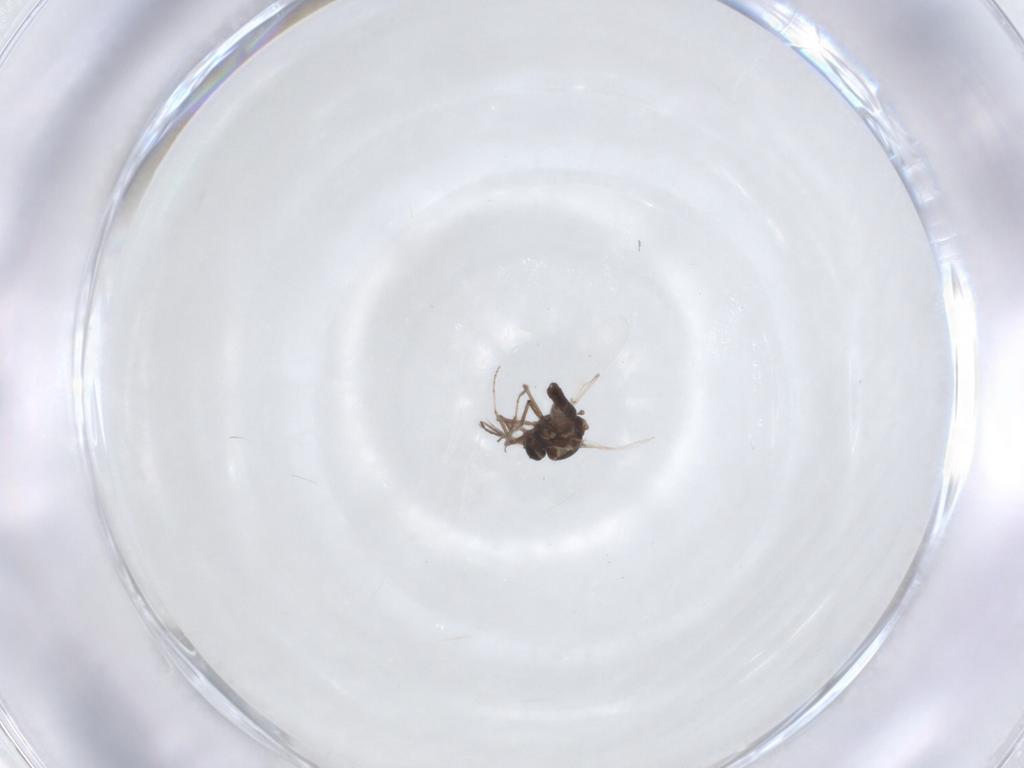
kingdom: Animalia
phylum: Arthropoda
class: Insecta
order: Diptera
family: Ceratopogonidae
